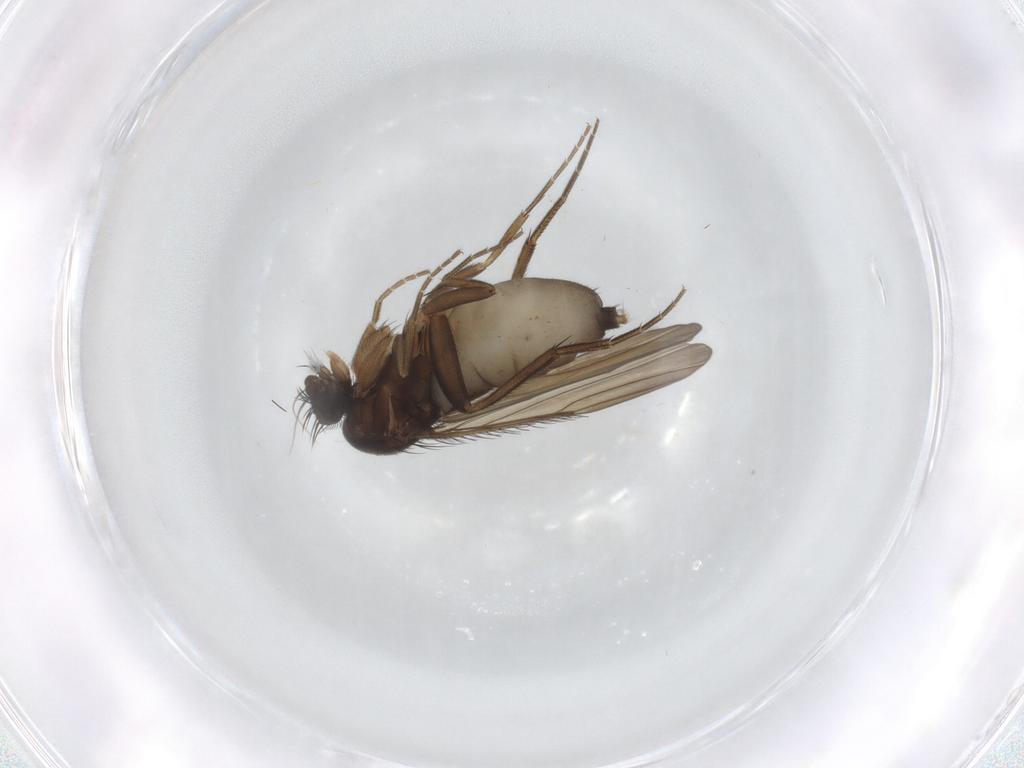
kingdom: Animalia
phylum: Arthropoda
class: Insecta
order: Diptera
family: Phoridae
